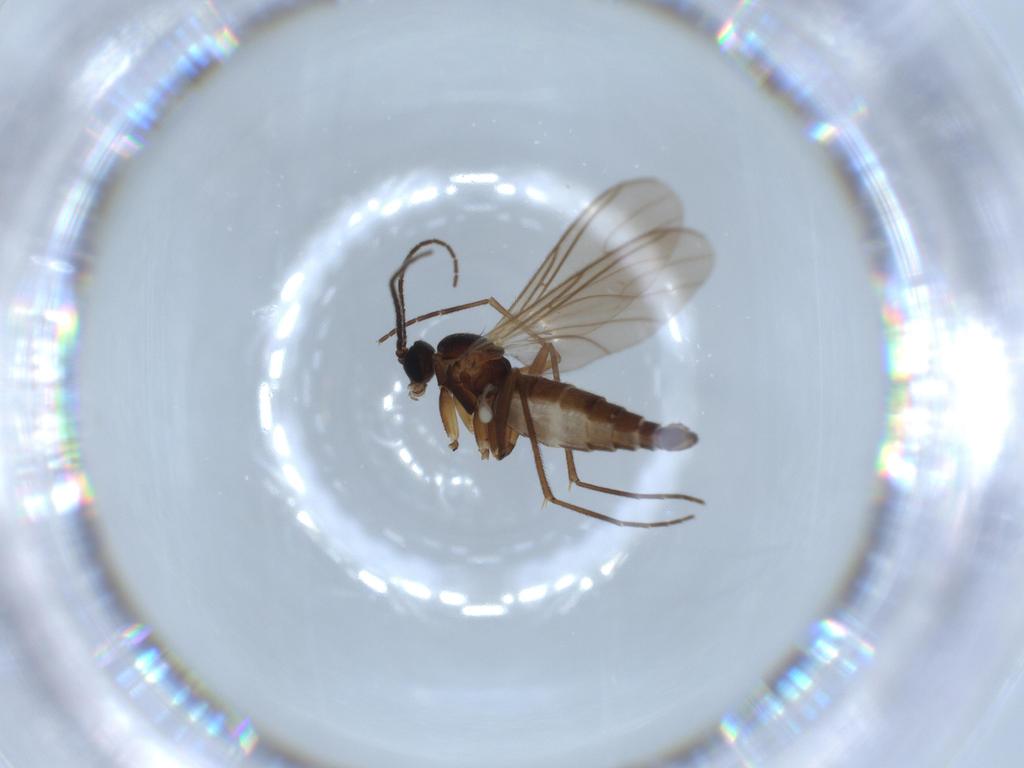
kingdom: Animalia
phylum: Arthropoda
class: Insecta
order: Diptera
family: Sciaridae
